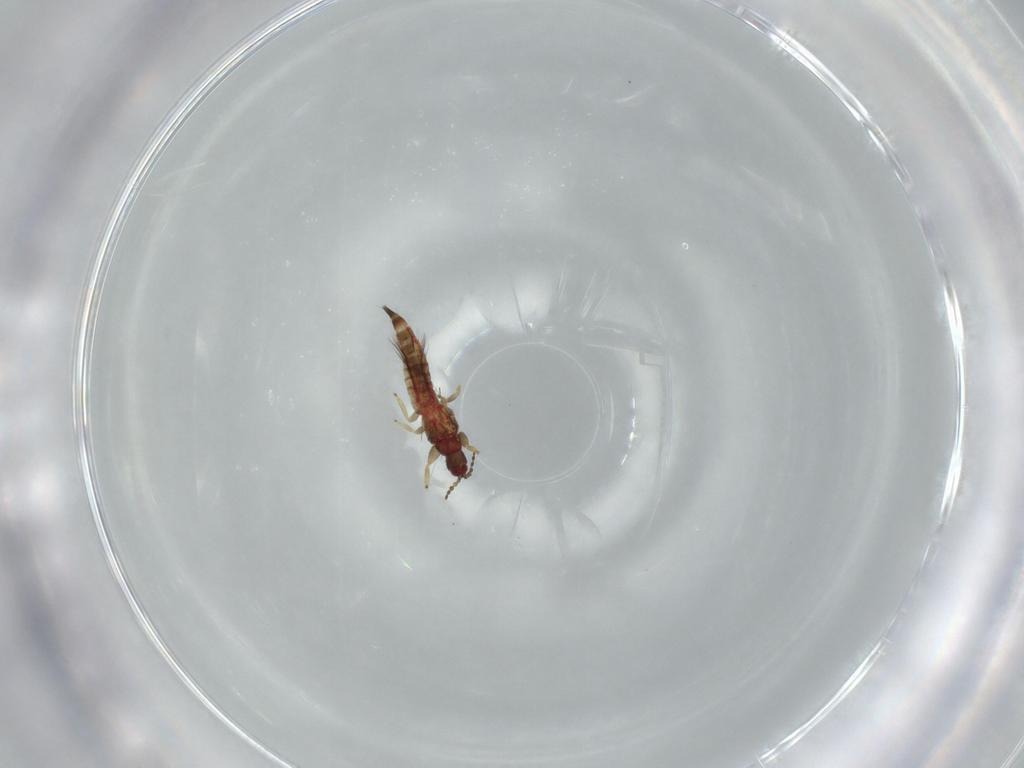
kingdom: Animalia
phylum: Arthropoda
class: Insecta
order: Thysanoptera
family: Phlaeothripidae
